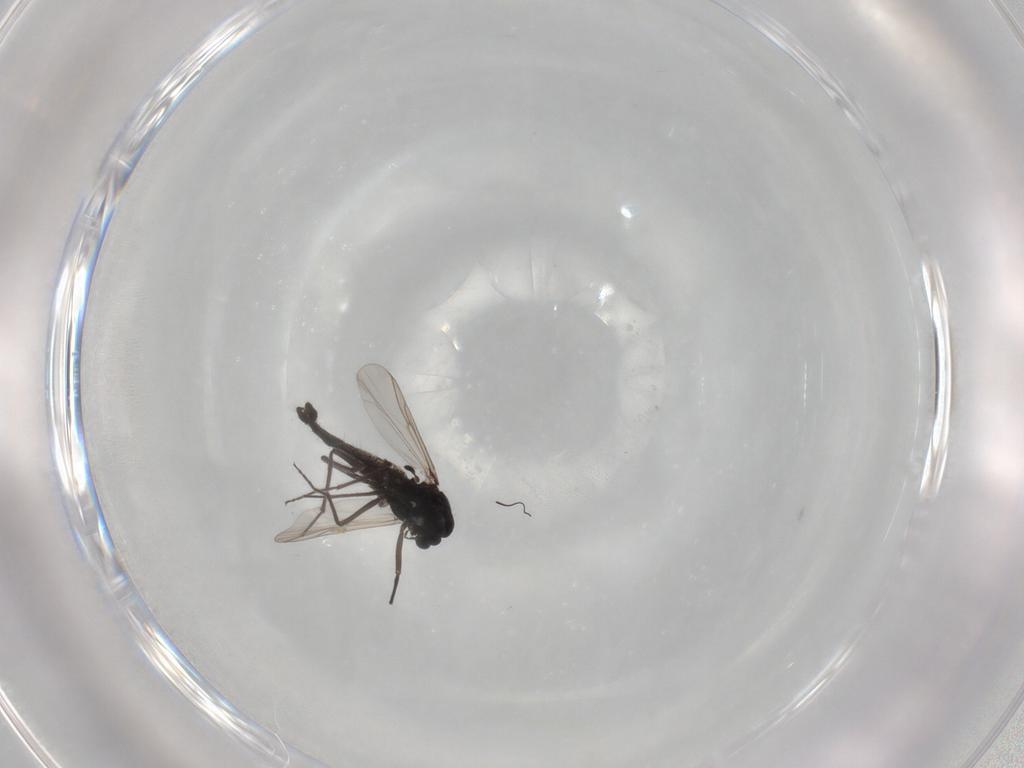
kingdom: Animalia
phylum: Arthropoda
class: Insecta
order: Diptera
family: Chironomidae
